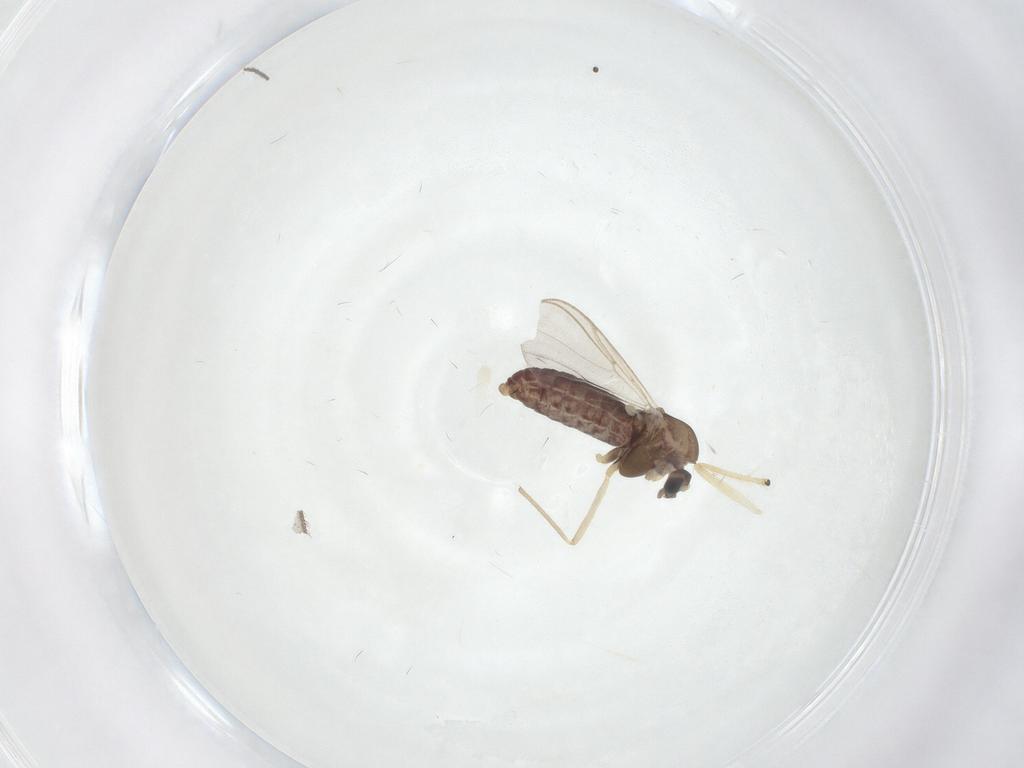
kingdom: Animalia
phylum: Arthropoda
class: Insecta
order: Diptera
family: Chironomidae
